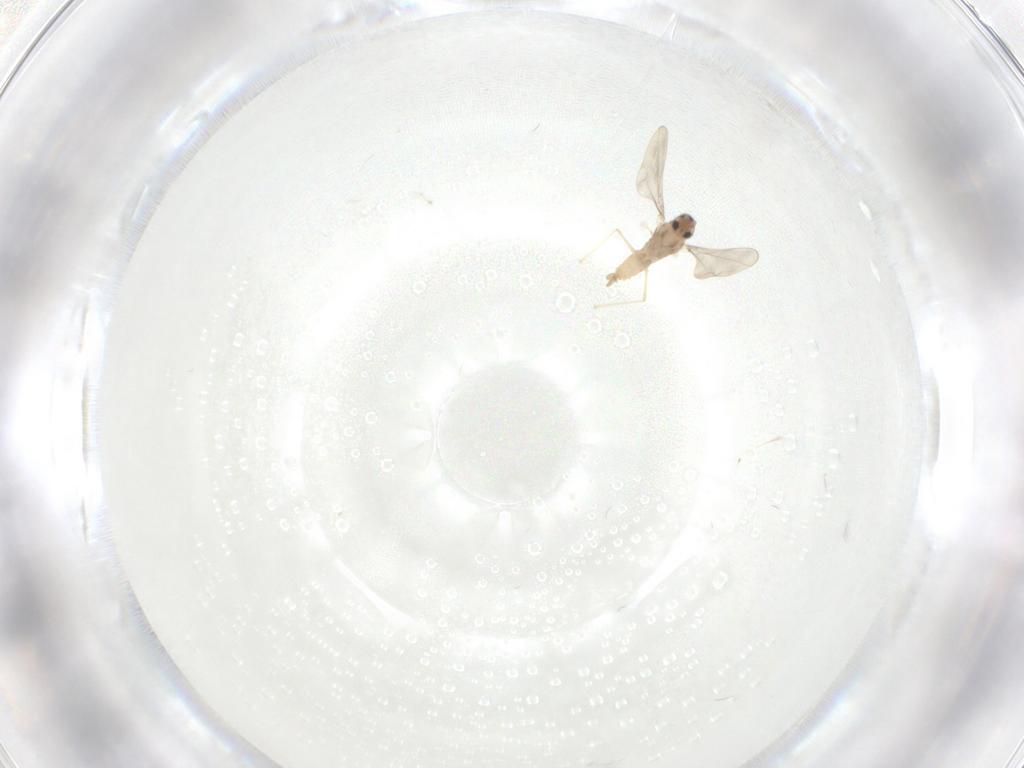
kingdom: Animalia
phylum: Arthropoda
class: Insecta
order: Diptera
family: Cecidomyiidae
